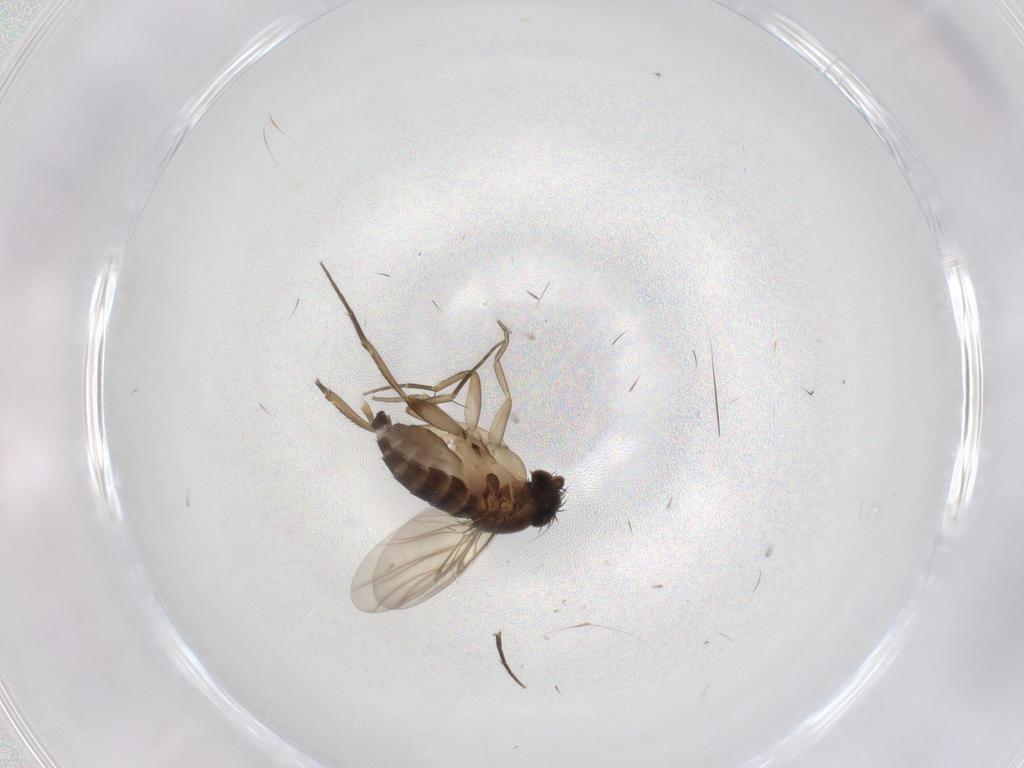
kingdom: Animalia
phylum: Arthropoda
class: Insecta
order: Diptera
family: Phoridae
